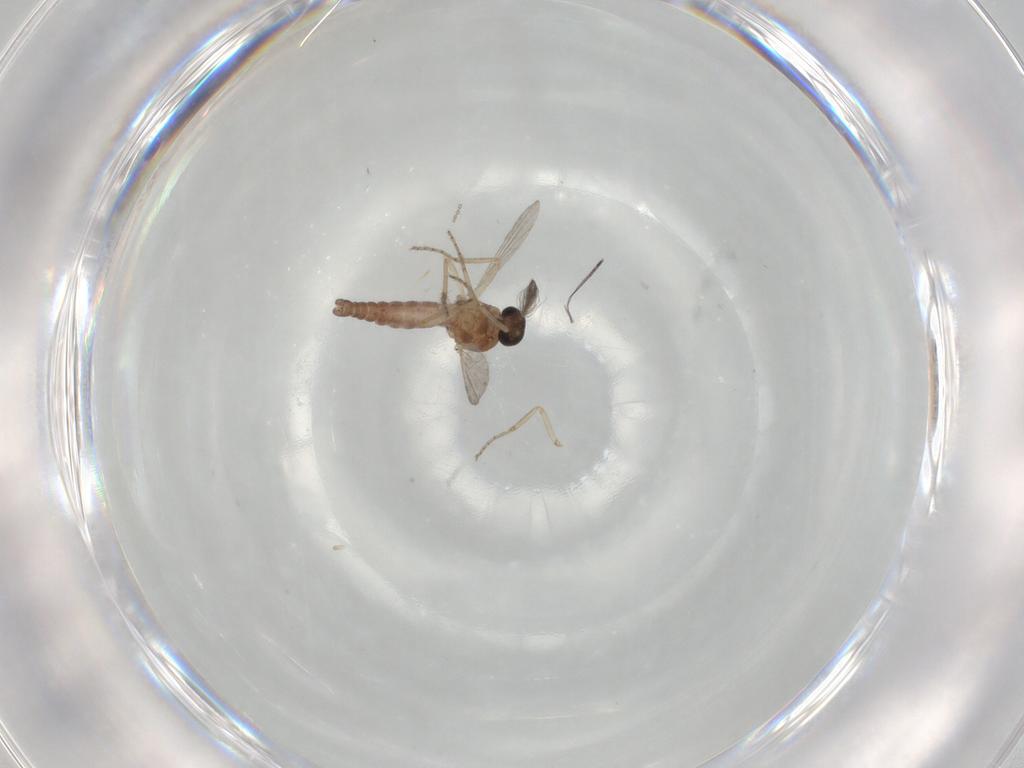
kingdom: Animalia
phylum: Arthropoda
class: Insecta
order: Diptera
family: Ceratopogonidae
